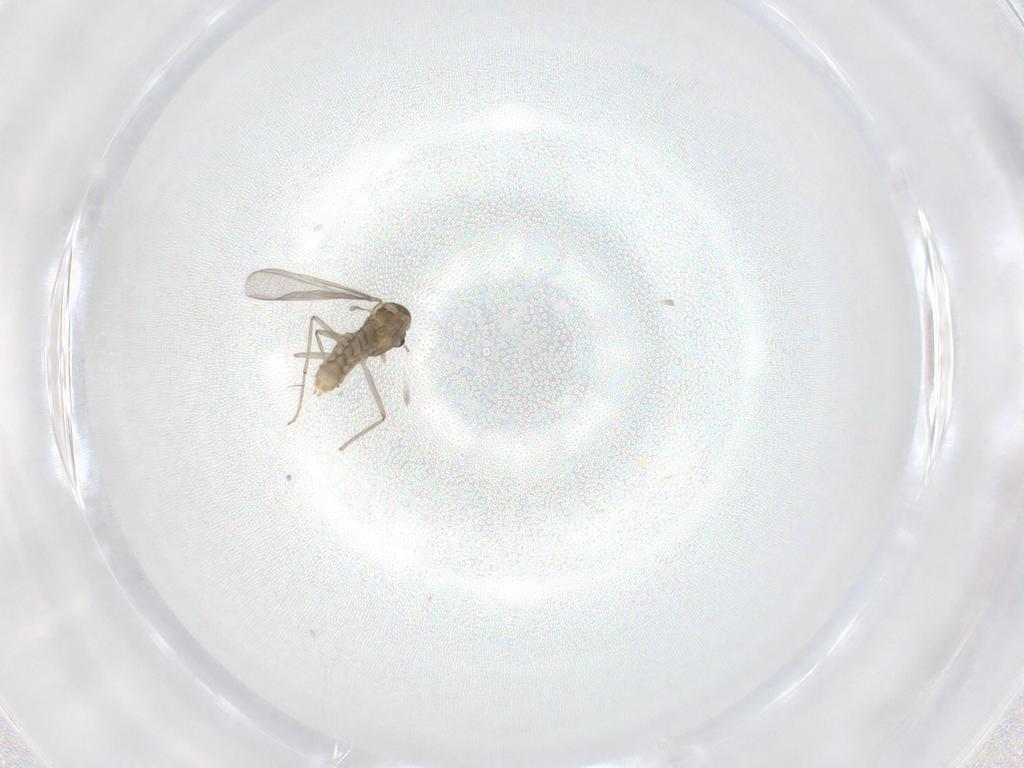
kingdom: Animalia
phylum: Arthropoda
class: Insecta
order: Diptera
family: Chironomidae
